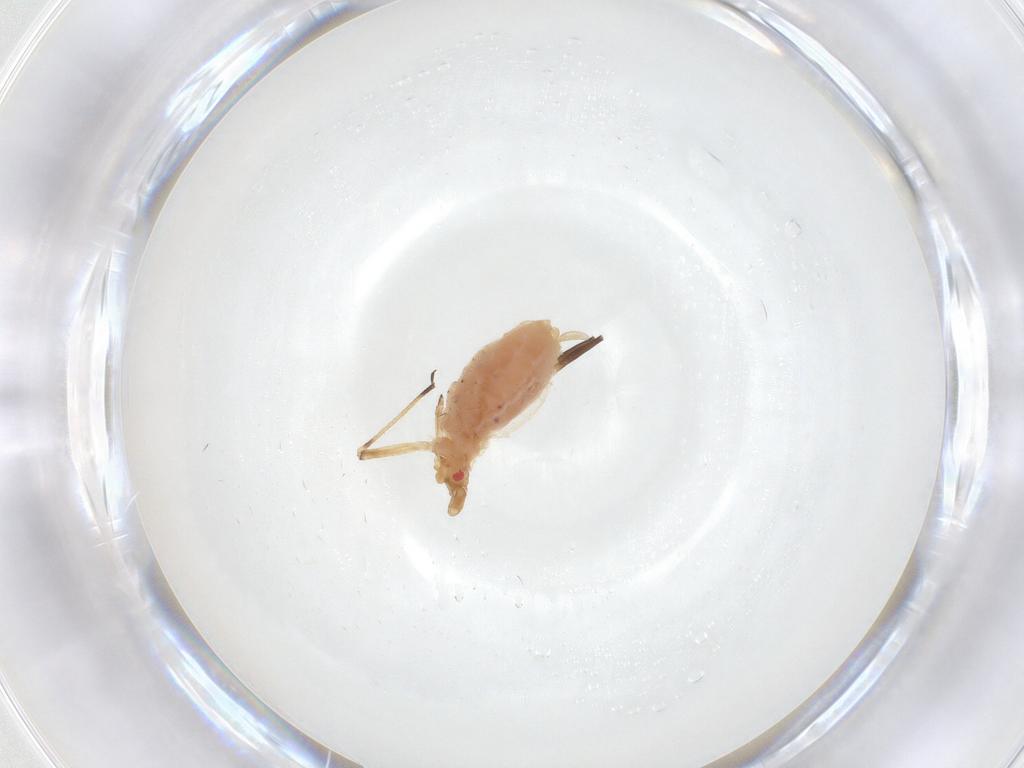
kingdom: Animalia
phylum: Arthropoda
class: Insecta
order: Hemiptera
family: Aphididae
